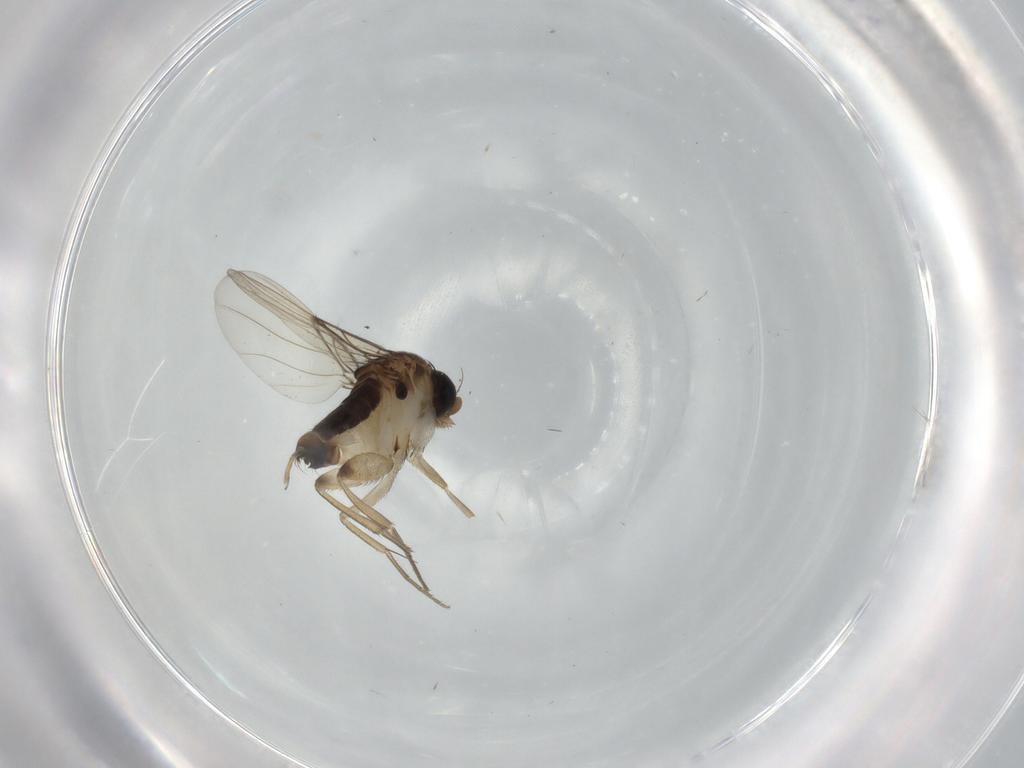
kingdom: Animalia
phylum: Arthropoda
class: Insecta
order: Diptera
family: Phoridae
